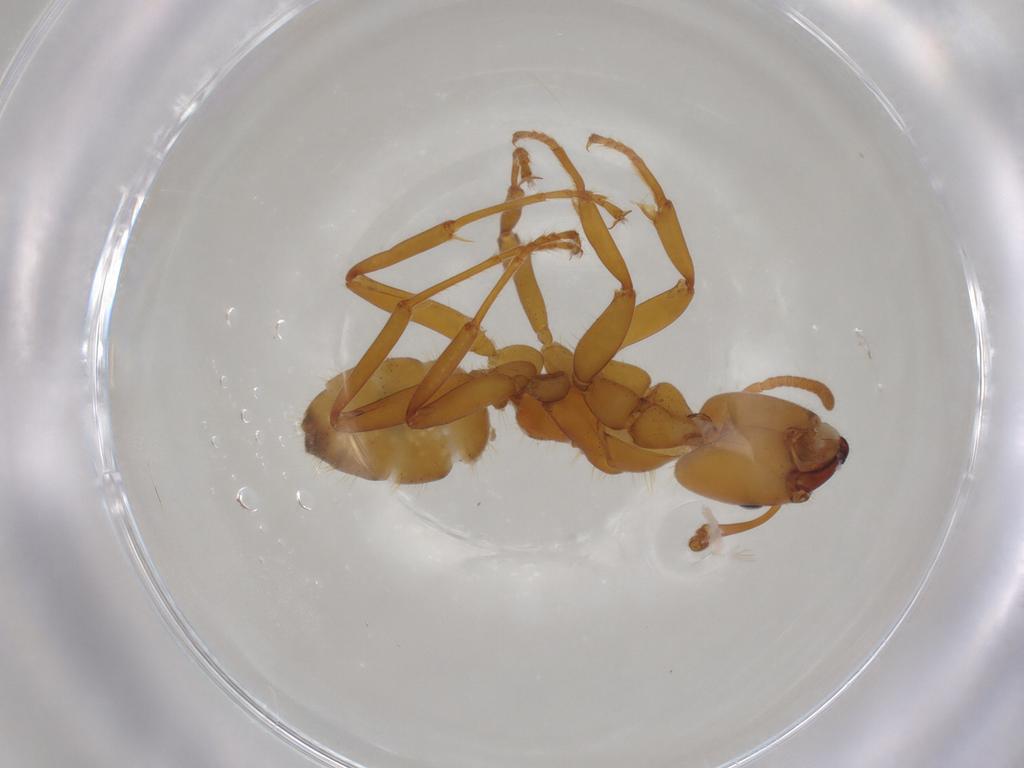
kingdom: Animalia
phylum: Arthropoda
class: Insecta
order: Hymenoptera
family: Formicidae
